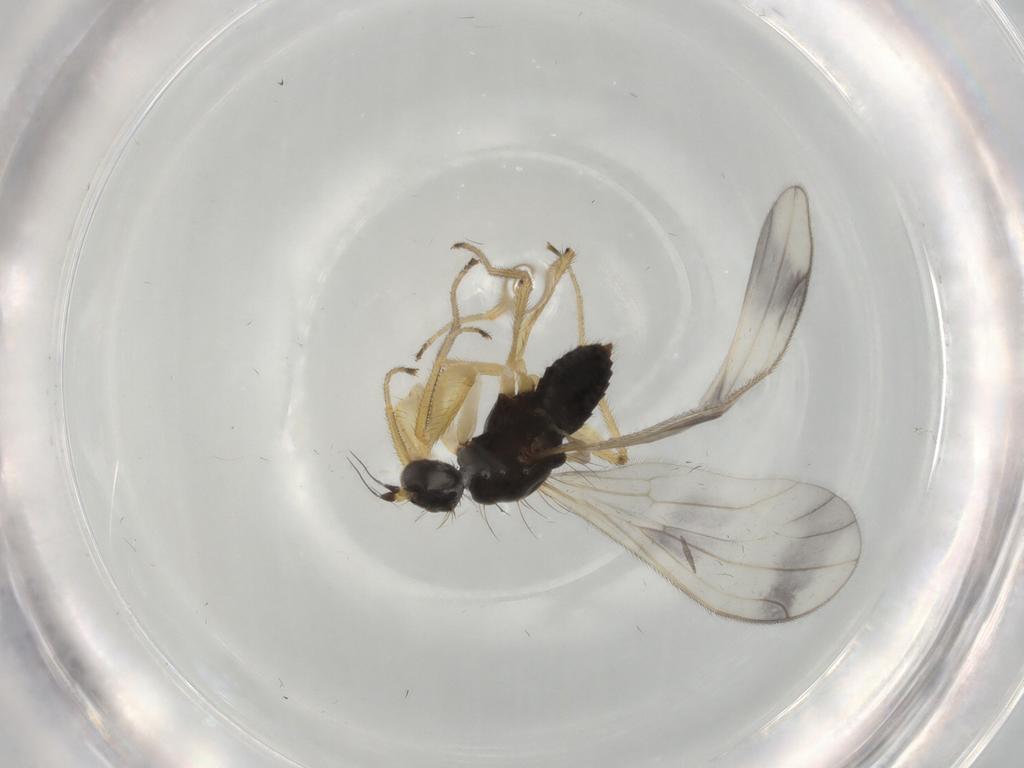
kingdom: Animalia
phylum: Arthropoda
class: Insecta
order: Diptera
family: Empididae
